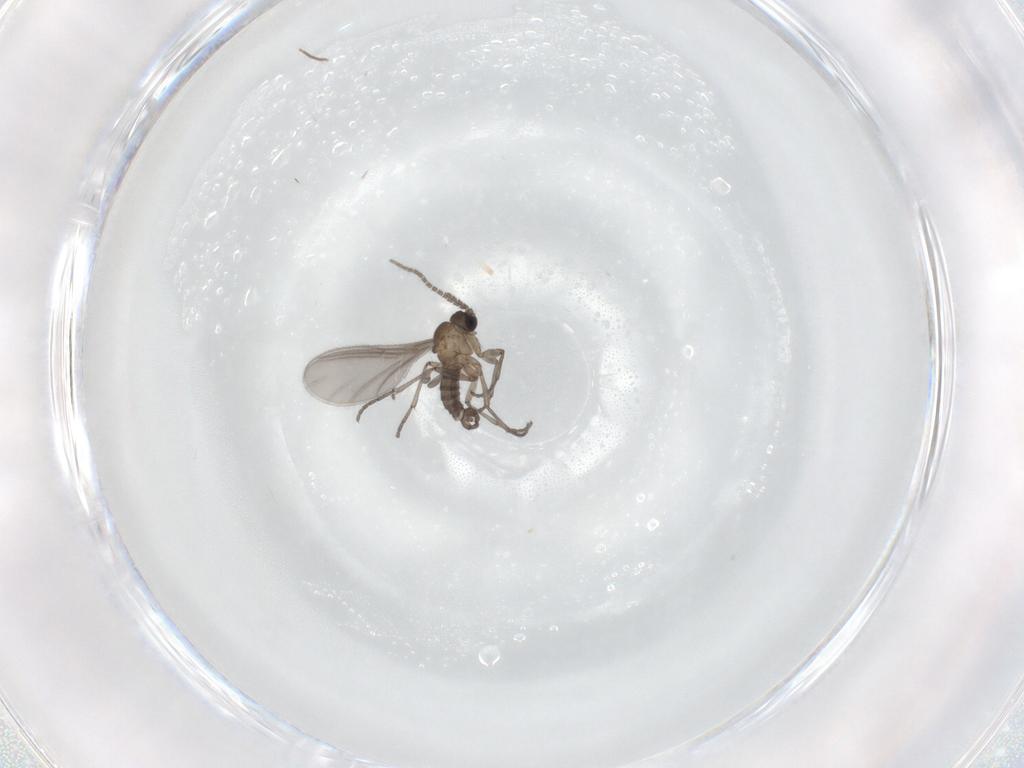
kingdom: Animalia
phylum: Arthropoda
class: Insecta
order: Diptera
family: Sciaridae
